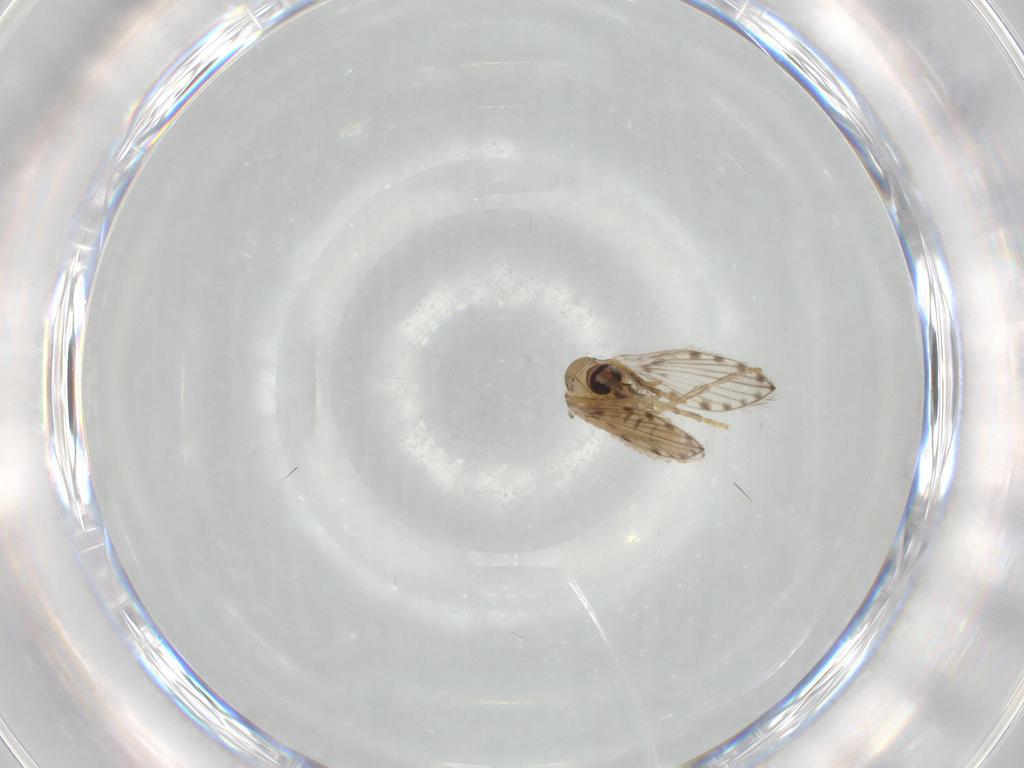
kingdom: Animalia
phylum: Arthropoda
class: Insecta
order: Diptera
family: Psychodidae
